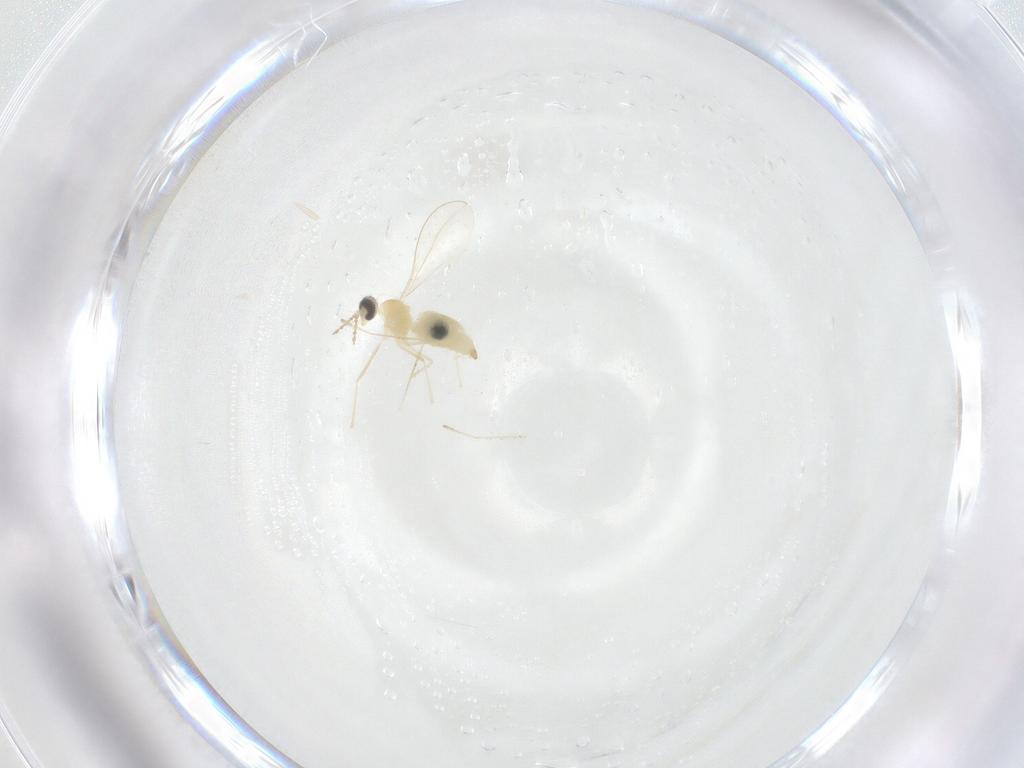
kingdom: Animalia
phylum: Arthropoda
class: Insecta
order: Diptera
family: Cecidomyiidae
